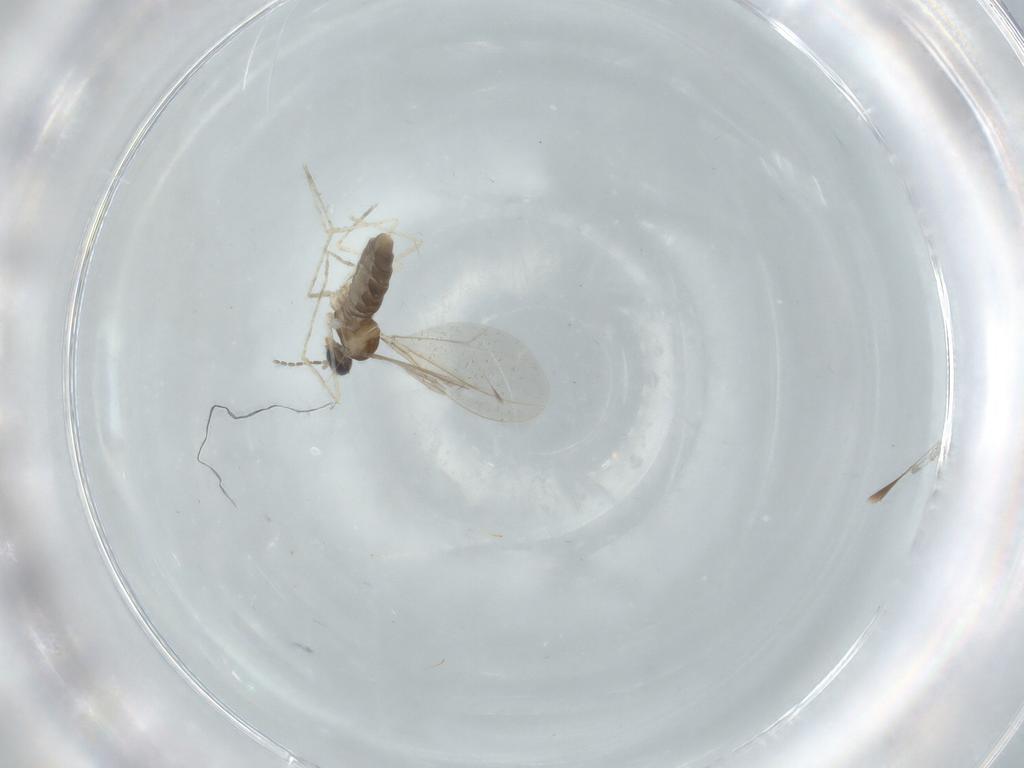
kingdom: Animalia
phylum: Arthropoda
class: Insecta
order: Diptera
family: Cecidomyiidae
